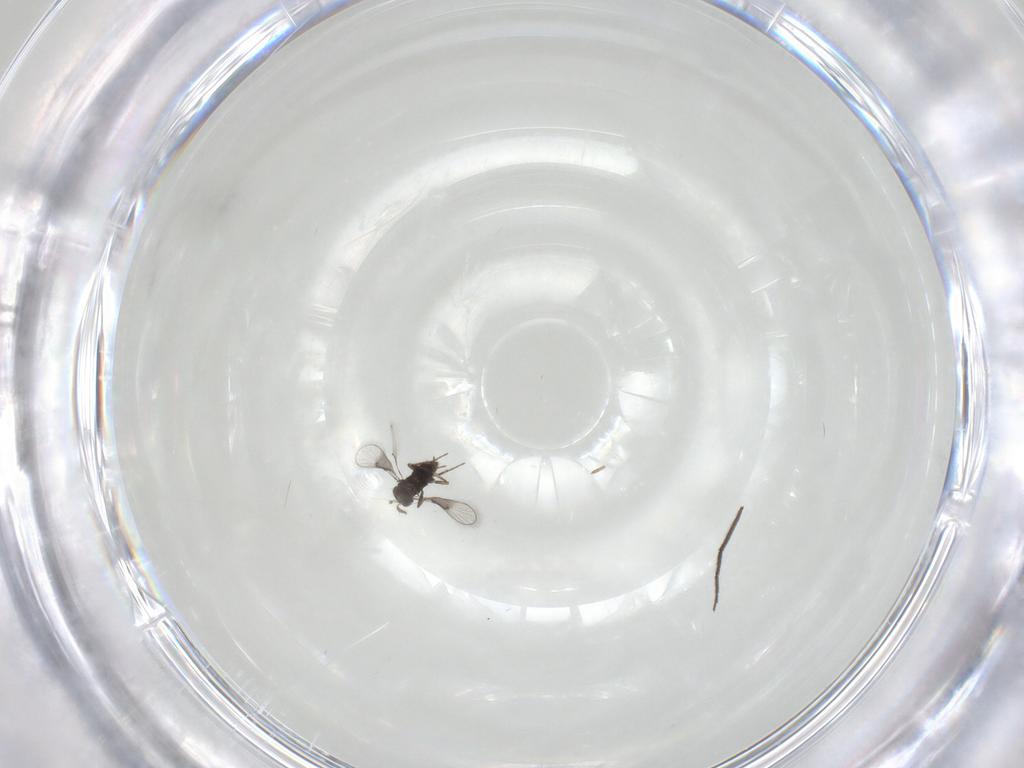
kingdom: Animalia
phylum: Arthropoda
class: Insecta
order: Hymenoptera
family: Trichogrammatidae
